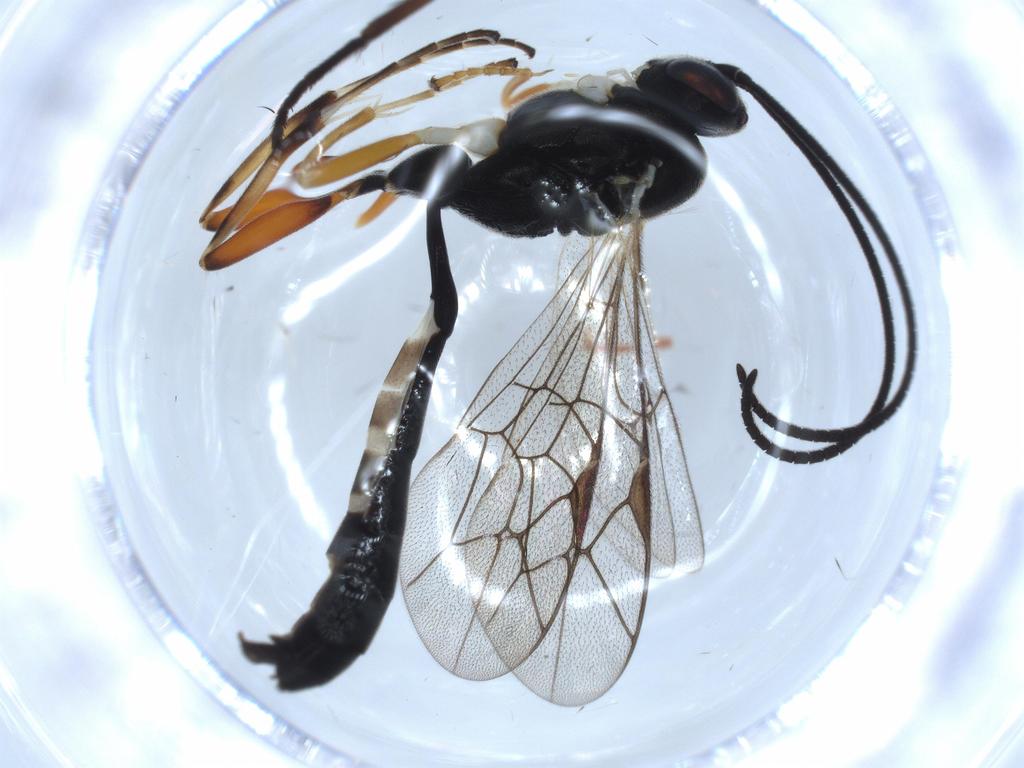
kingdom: Animalia
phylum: Arthropoda
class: Insecta
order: Hymenoptera
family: Ichneumonidae
